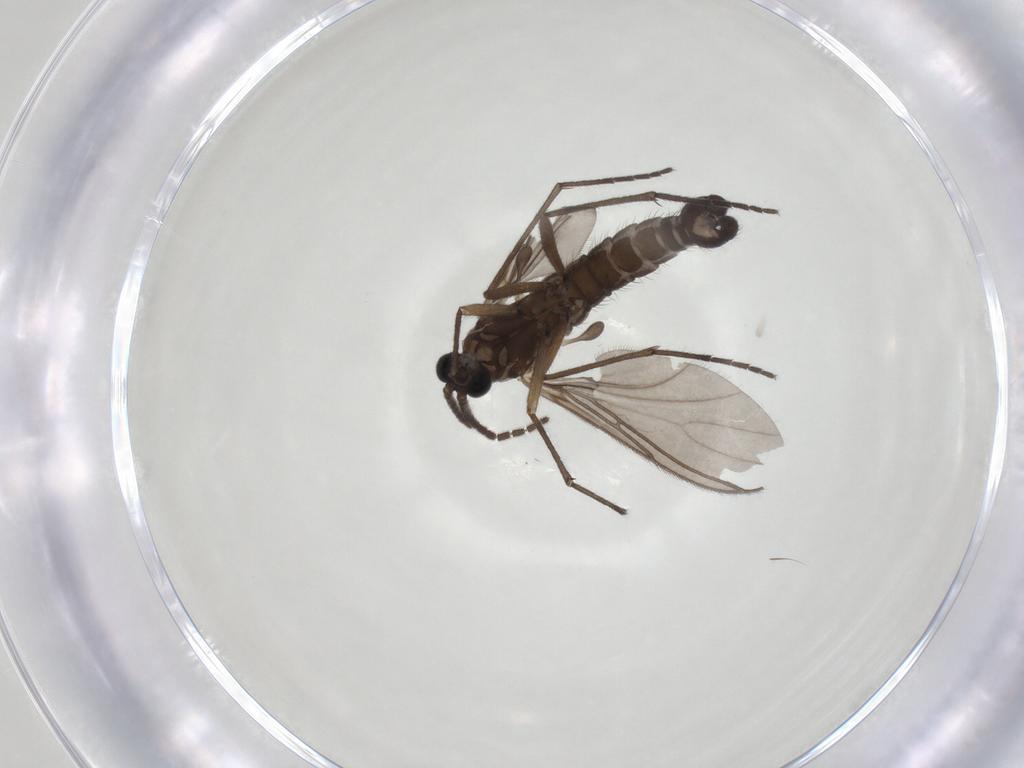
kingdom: Animalia
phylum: Arthropoda
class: Insecta
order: Diptera
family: Sciaridae
